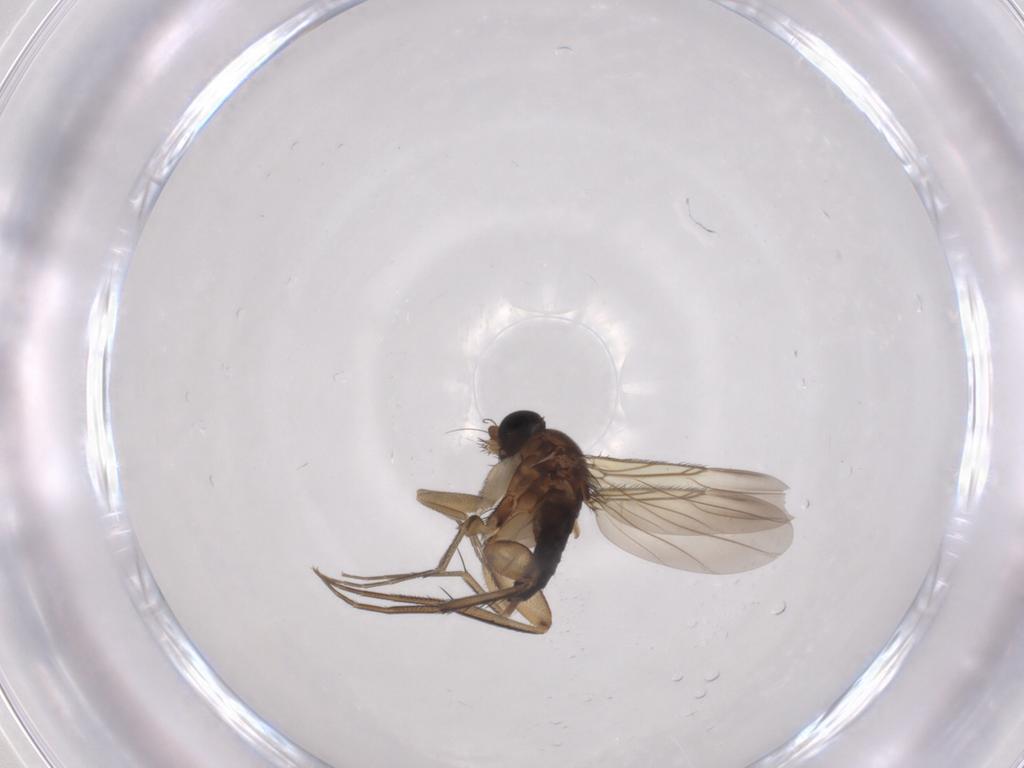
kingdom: Animalia
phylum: Arthropoda
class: Insecta
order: Diptera
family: Phoridae
